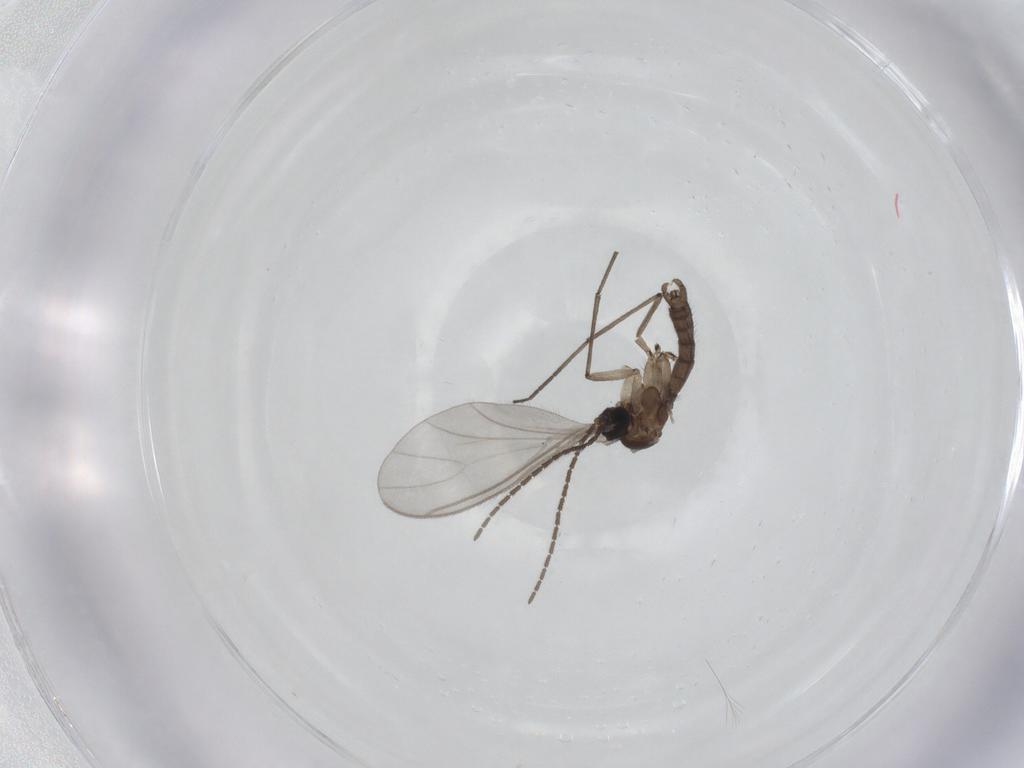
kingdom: Animalia
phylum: Arthropoda
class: Insecta
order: Diptera
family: Sciaridae
